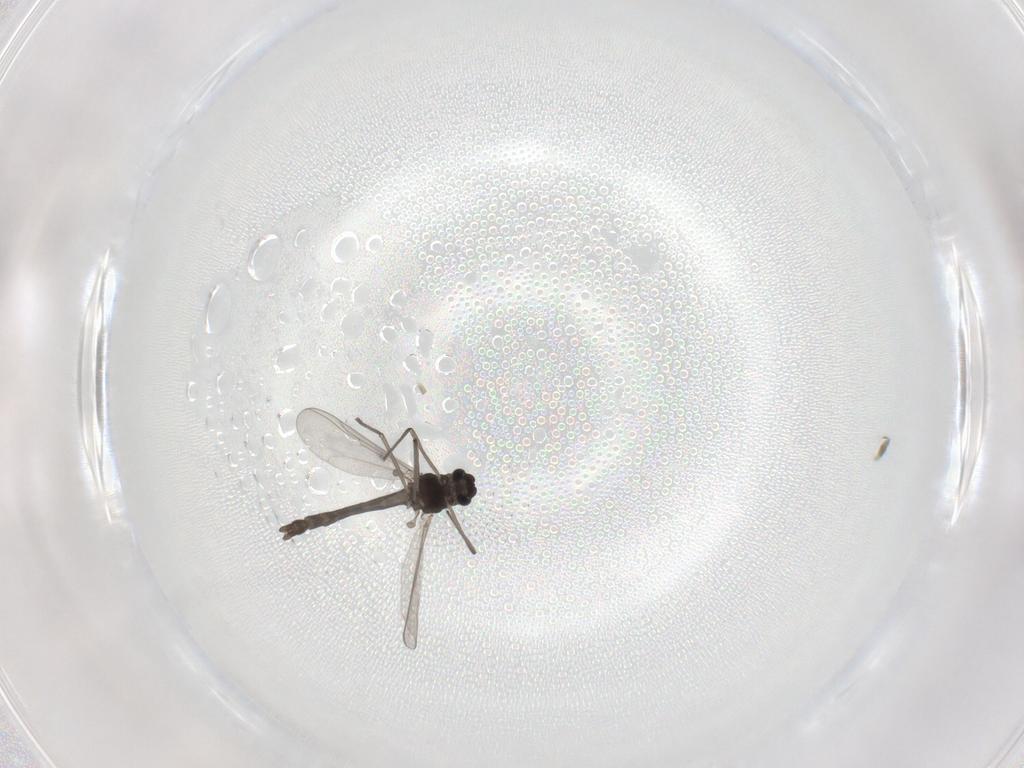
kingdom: Animalia
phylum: Arthropoda
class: Insecta
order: Diptera
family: Chironomidae
